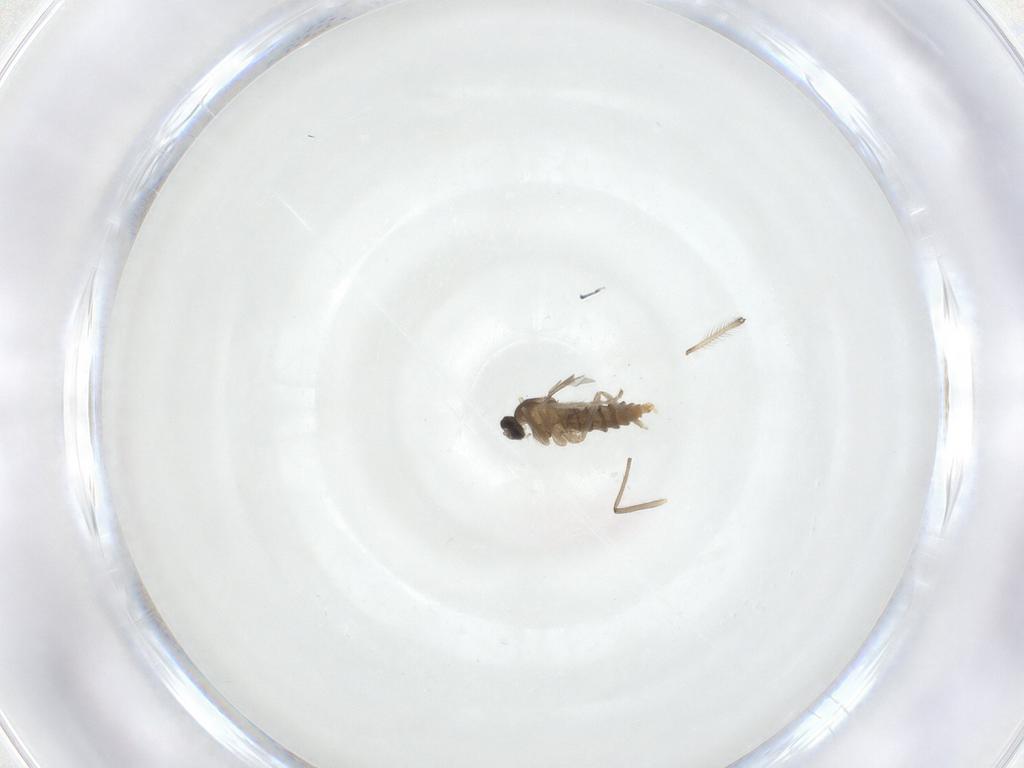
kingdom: Animalia
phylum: Arthropoda
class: Insecta
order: Diptera
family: Cecidomyiidae
